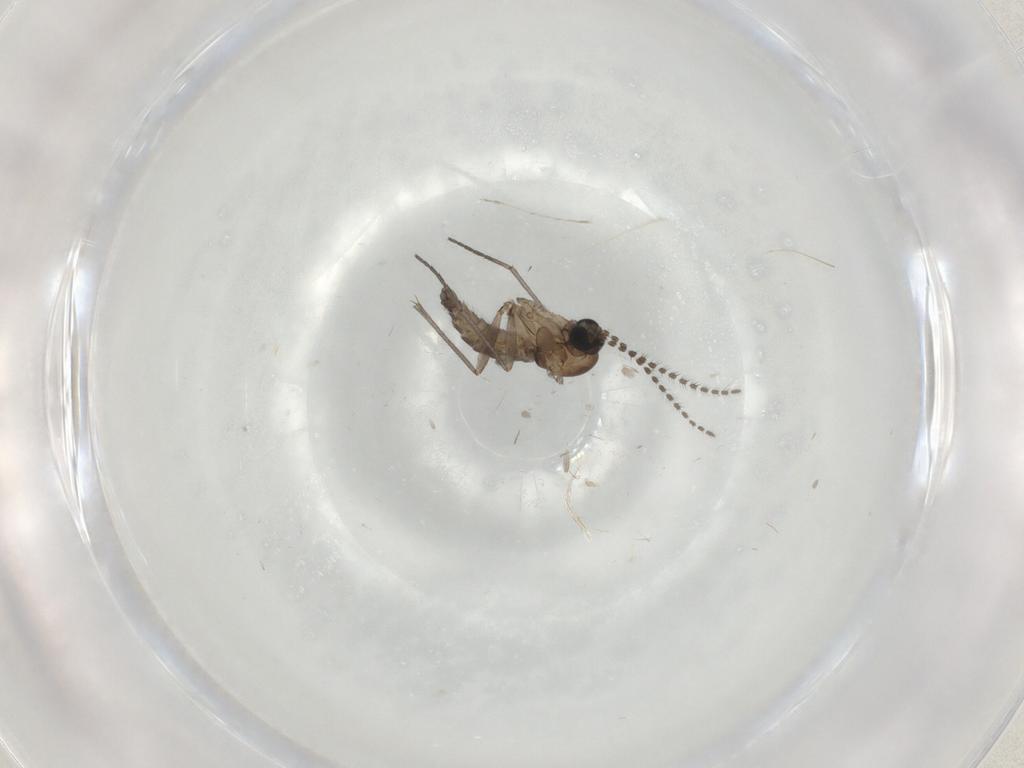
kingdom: Animalia
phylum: Arthropoda
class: Insecta
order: Diptera
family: Sciaridae
